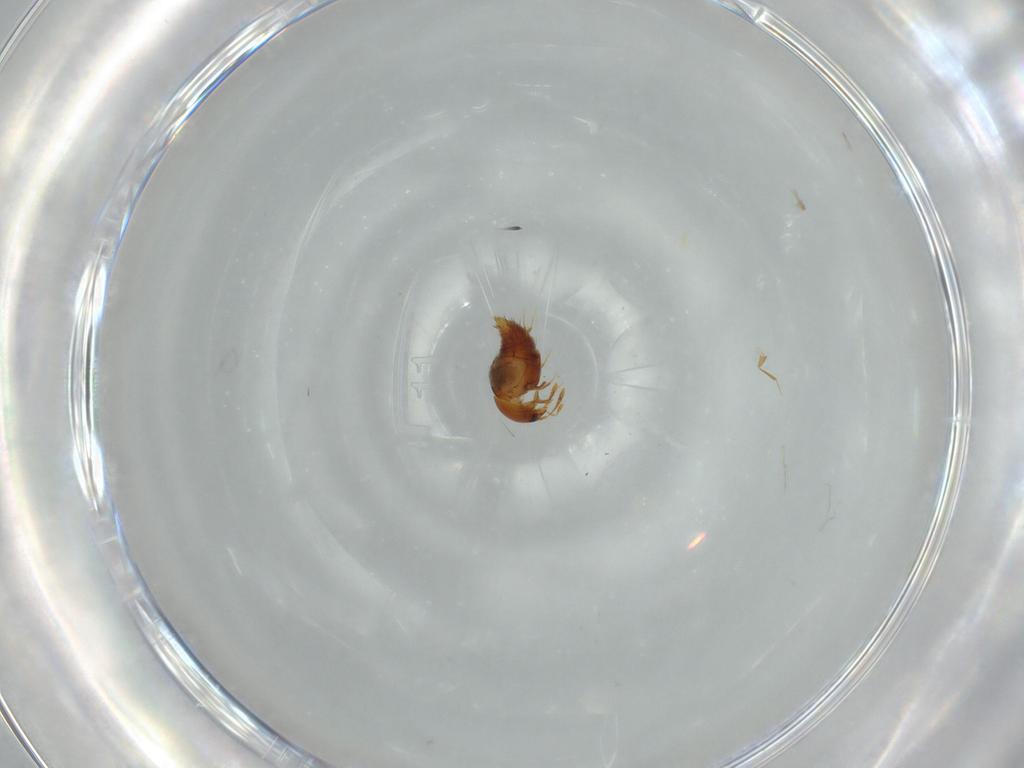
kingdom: Animalia
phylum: Arthropoda
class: Insecta
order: Coleoptera
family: Staphylinidae
